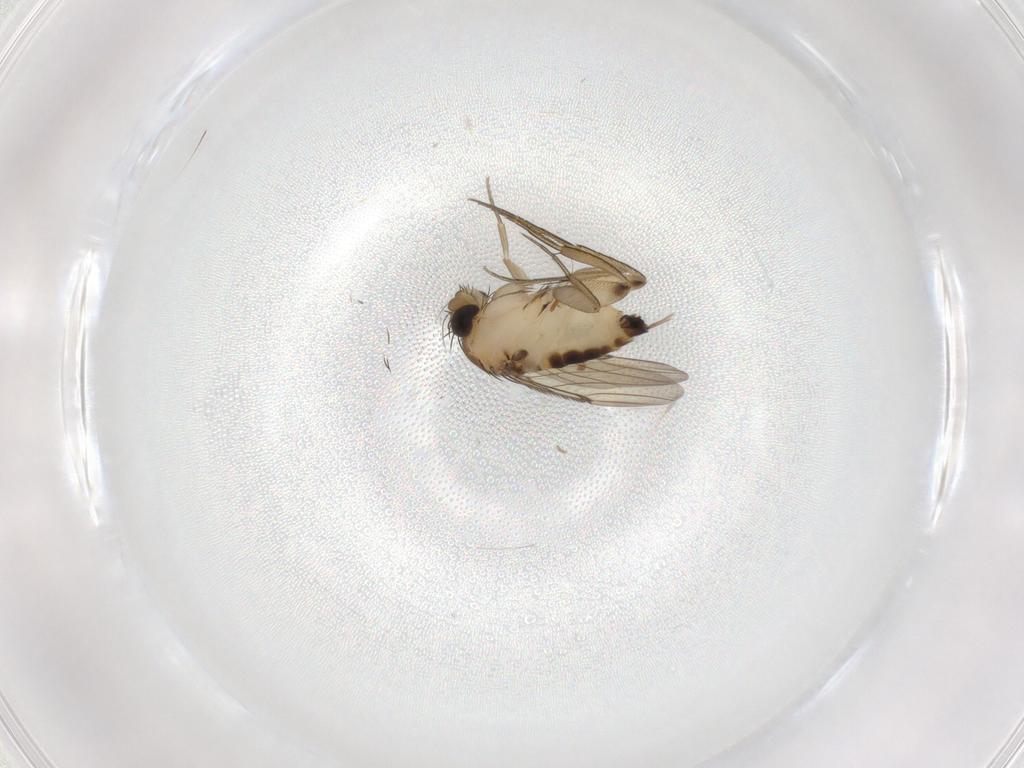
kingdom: Animalia
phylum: Arthropoda
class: Insecta
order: Diptera
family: Phoridae
